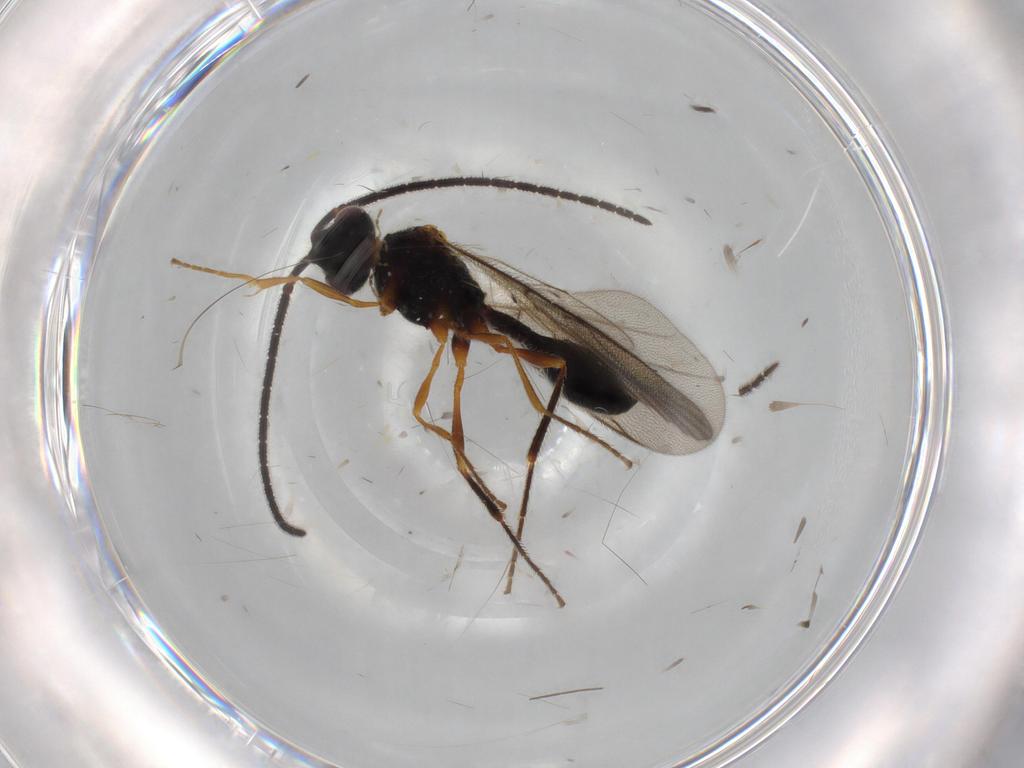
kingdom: Animalia
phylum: Arthropoda
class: Insecta
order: Hymenoptera
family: Diapriidae
